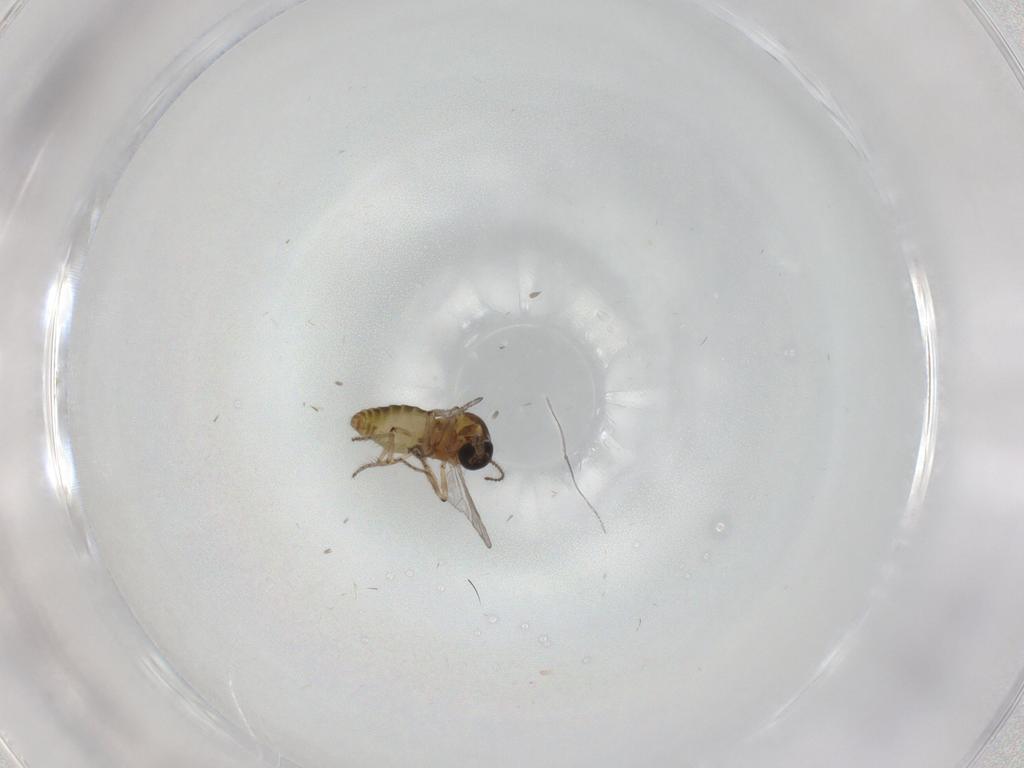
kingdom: Animalia
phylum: Arthropoda
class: Insecta
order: Diptera
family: Ceratopogonidae
